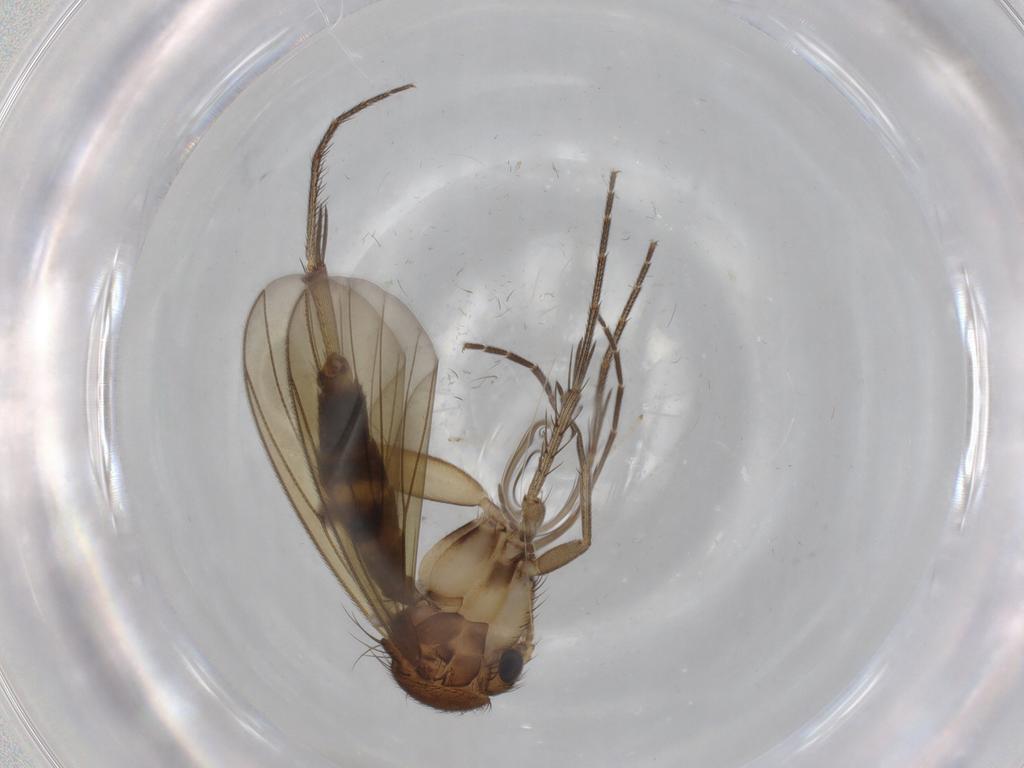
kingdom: Animalia
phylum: Arthropoda
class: Insecta
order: Diptera
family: Mycetophilidae
